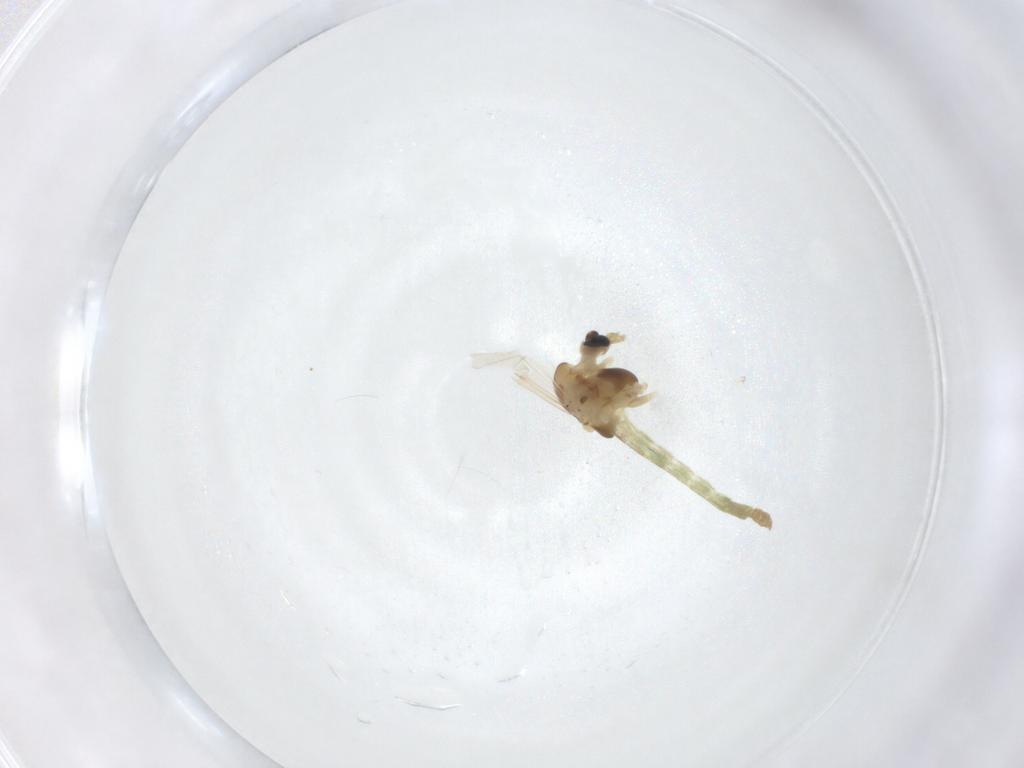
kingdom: Animalia
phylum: Arthropoda
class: Insecta
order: Diptera
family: Chironomidae
